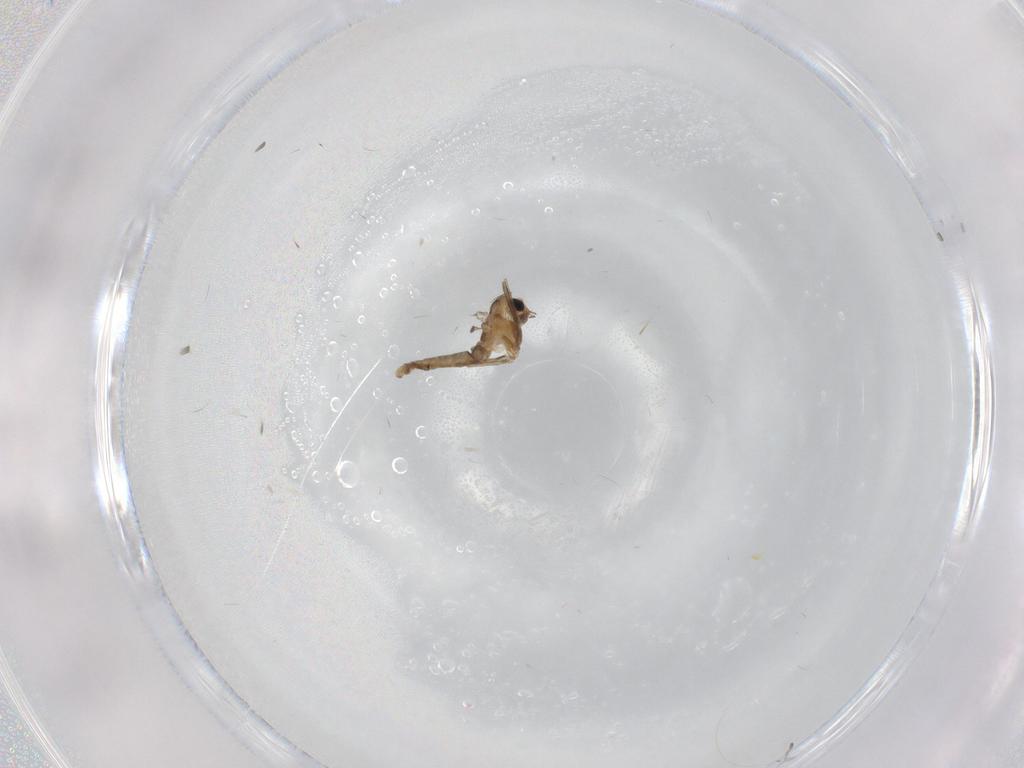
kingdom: Animalia
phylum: Arthropoda
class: Insecta
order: Diptera
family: Chironomidae
